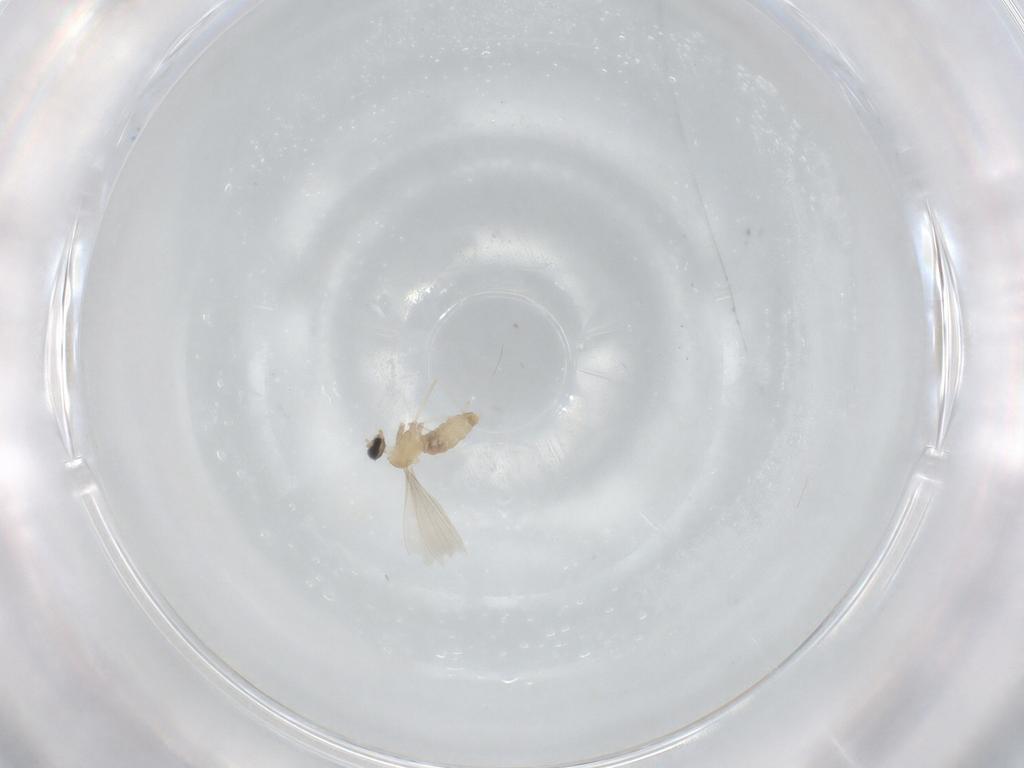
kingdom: Animalia
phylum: Arthropoda
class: Insecta
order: Diptera
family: Cecidomyiidae
